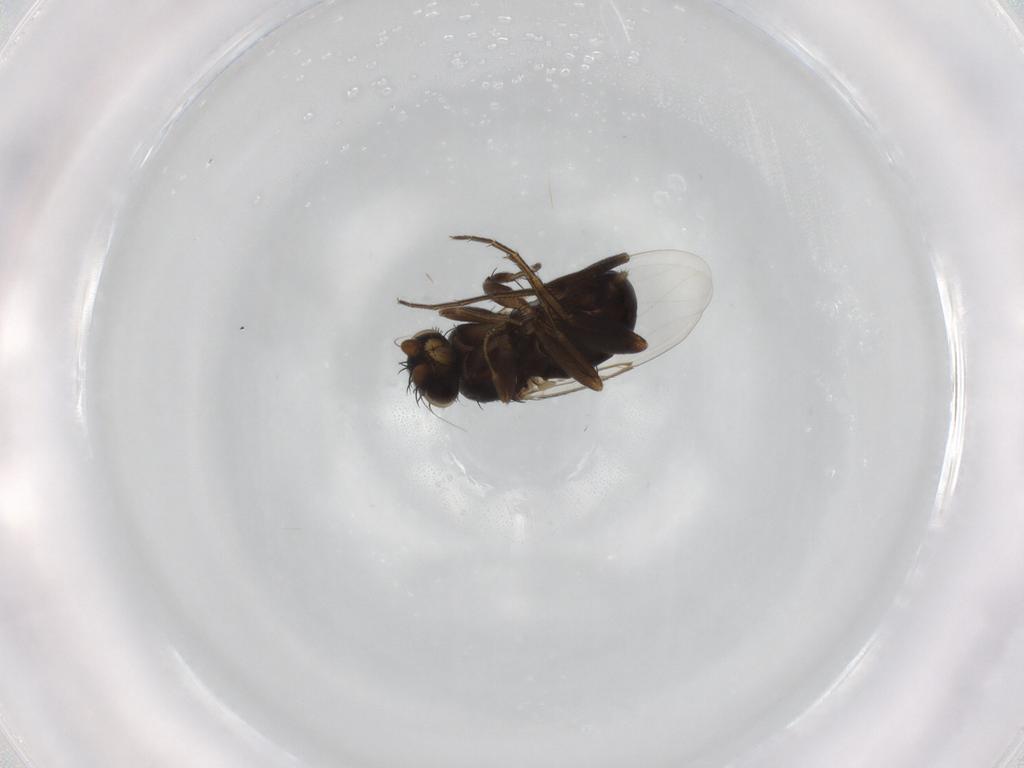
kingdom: Animalia
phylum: Arthropoda
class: Insecta
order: Diptera
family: Phoridae
